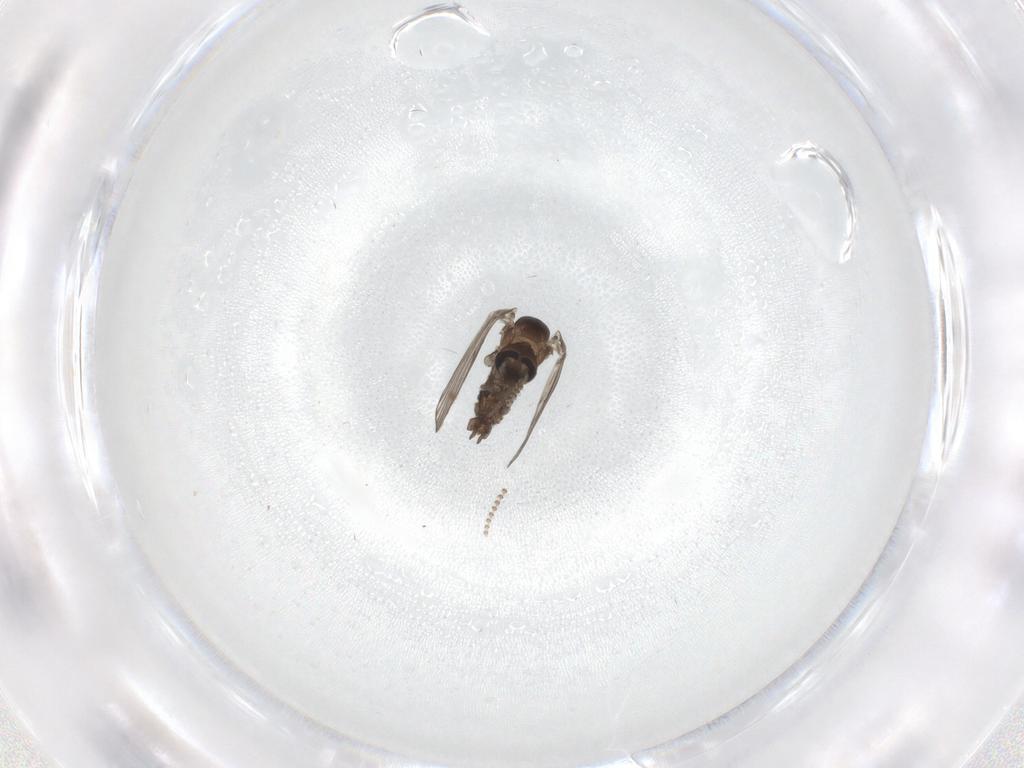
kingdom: Animalia
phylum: Arthropoda
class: Insecta
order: Diptera
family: Psychodidae
